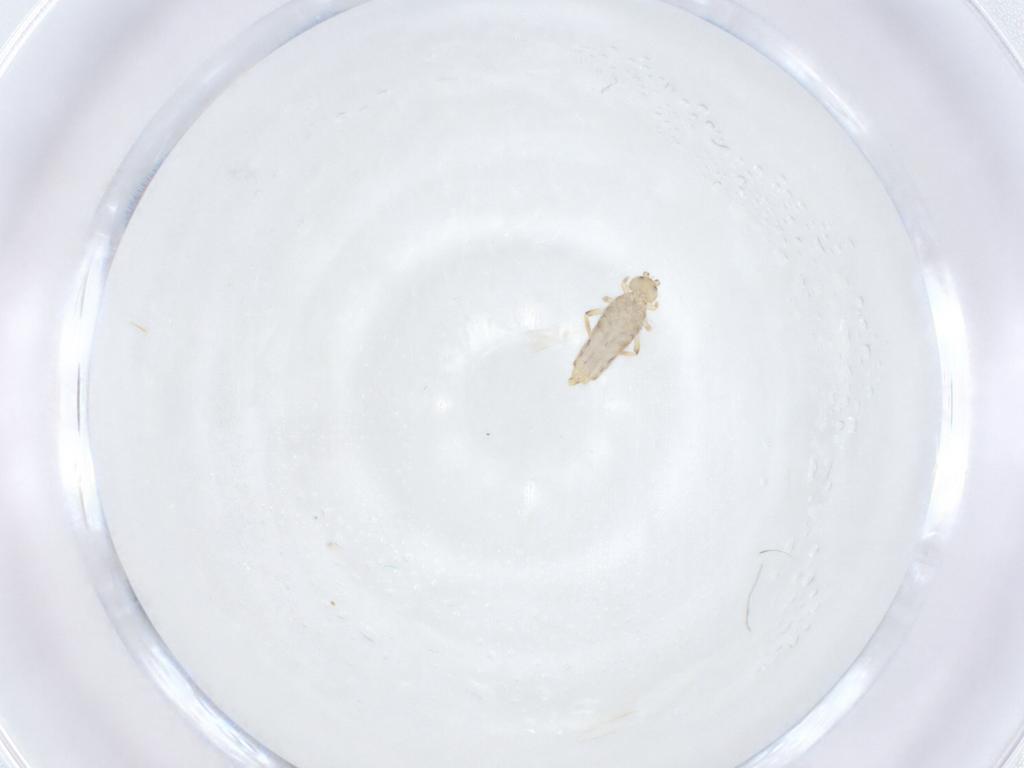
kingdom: Animalia
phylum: Arthropoda
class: Collembola
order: Entomobryomorpha
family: Entomobryidae
